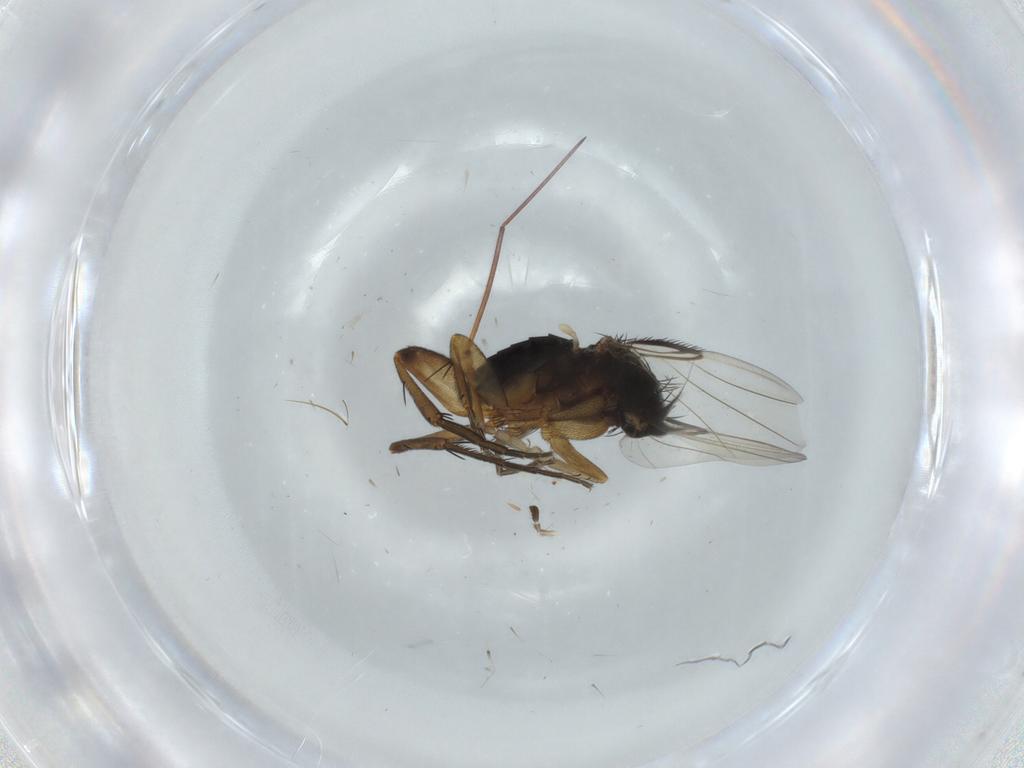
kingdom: Animalia
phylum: Arthropoda
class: Insecta
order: Diptera
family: Phoridae
